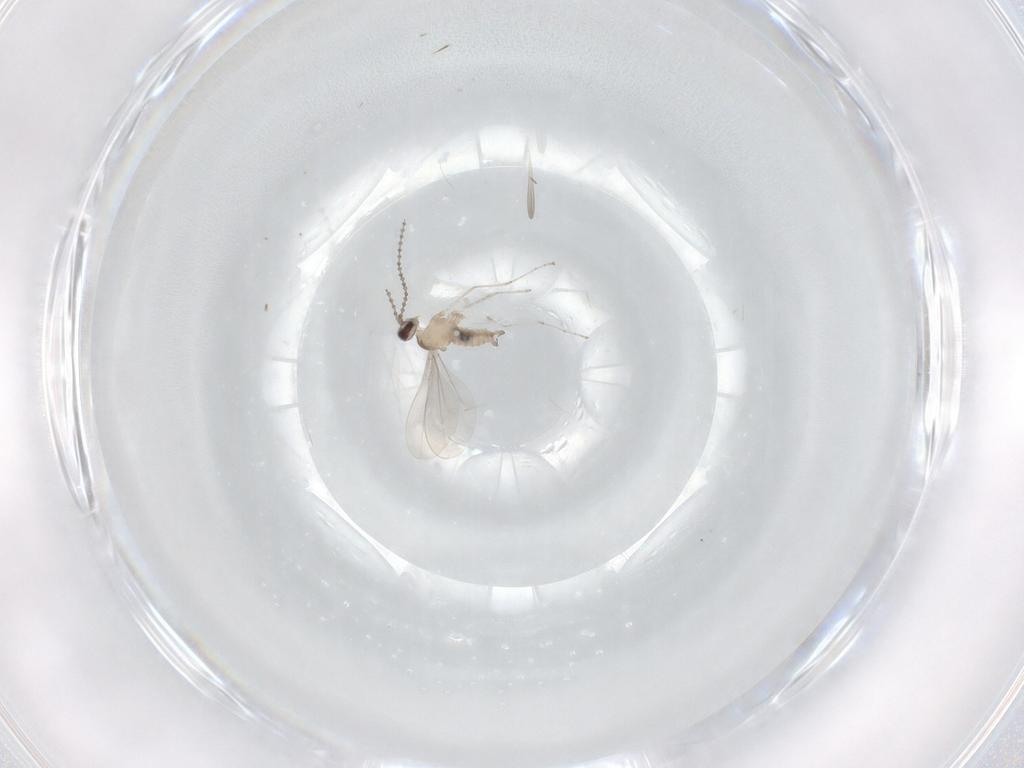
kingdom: Animalia
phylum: Arthropoda
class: Insecta
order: Diptera
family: Cecidomyiidae
